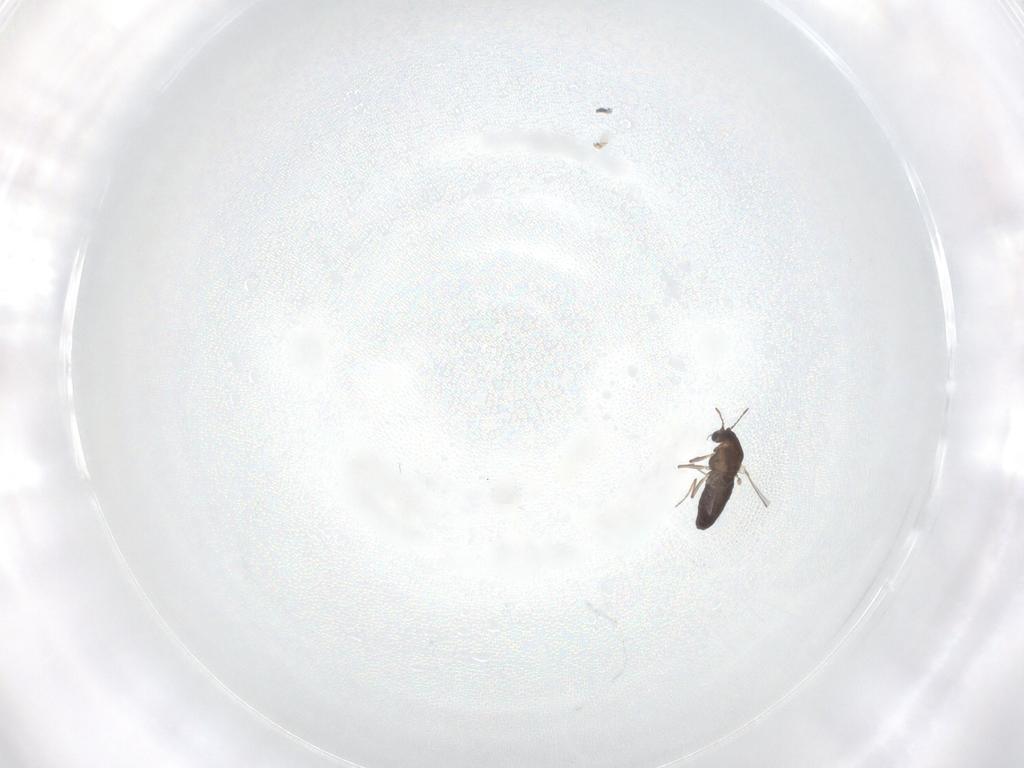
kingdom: Animalia
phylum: Arthropoda
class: Insecta
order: Diptera
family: Chironomidae
